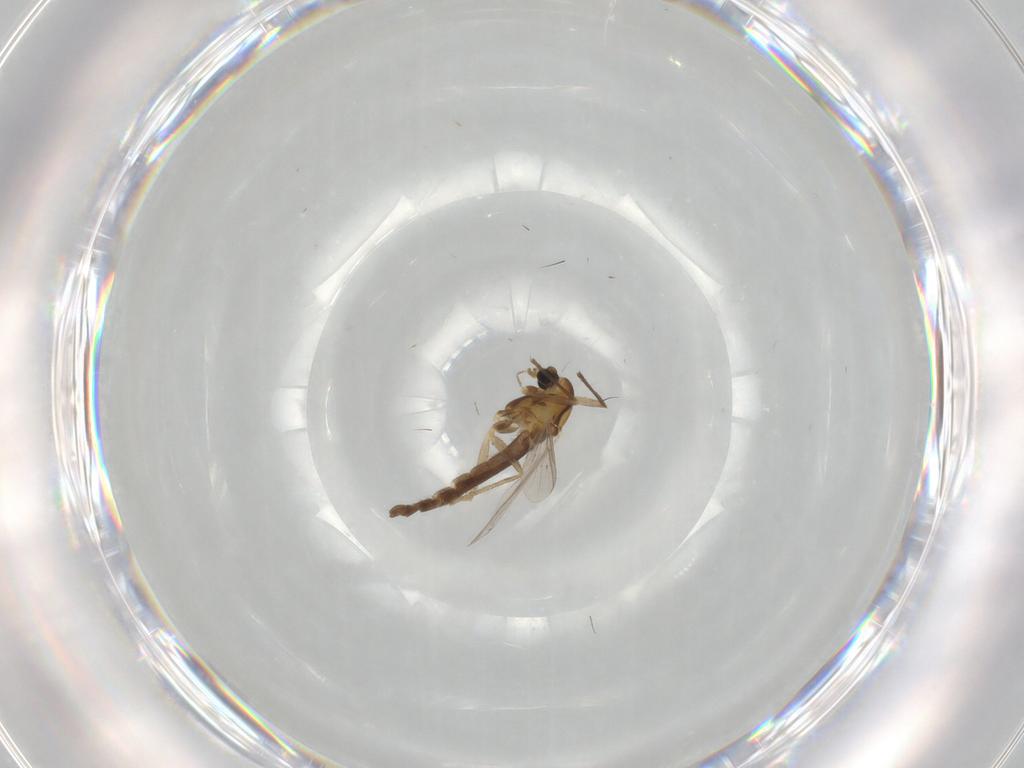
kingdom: Animalia
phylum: Arthropoda
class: Insecta
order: Diptera
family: Chironomidae
